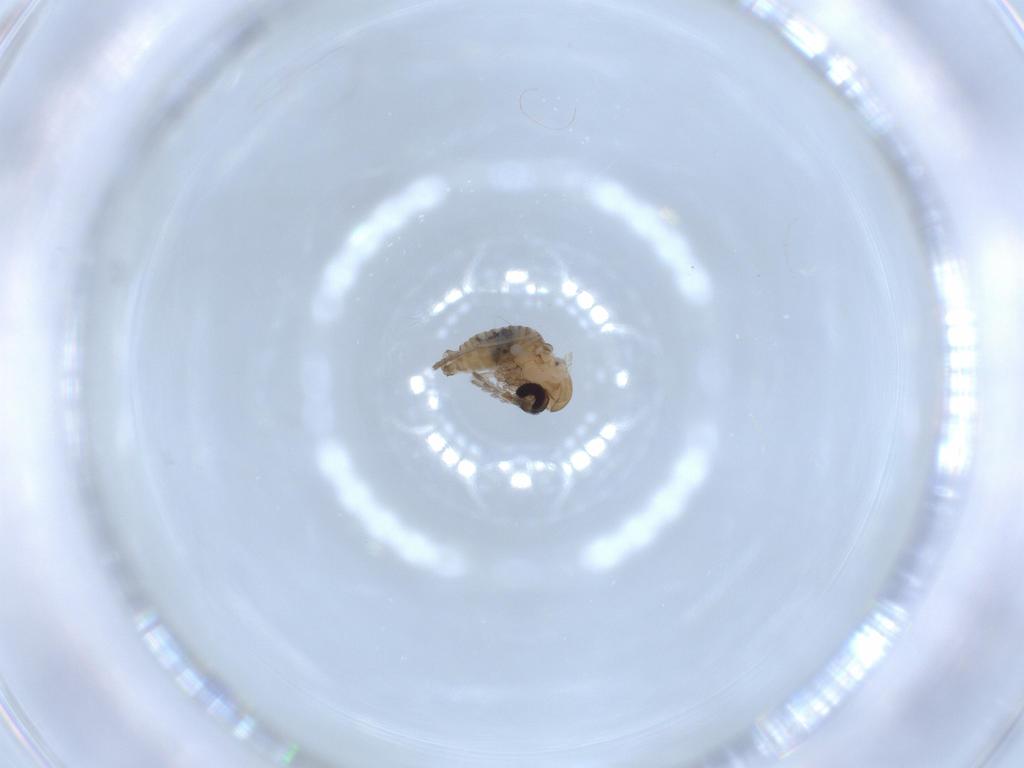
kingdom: Animalia
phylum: Arthropoda
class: Insecta
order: Diptera
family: Psychodidae
